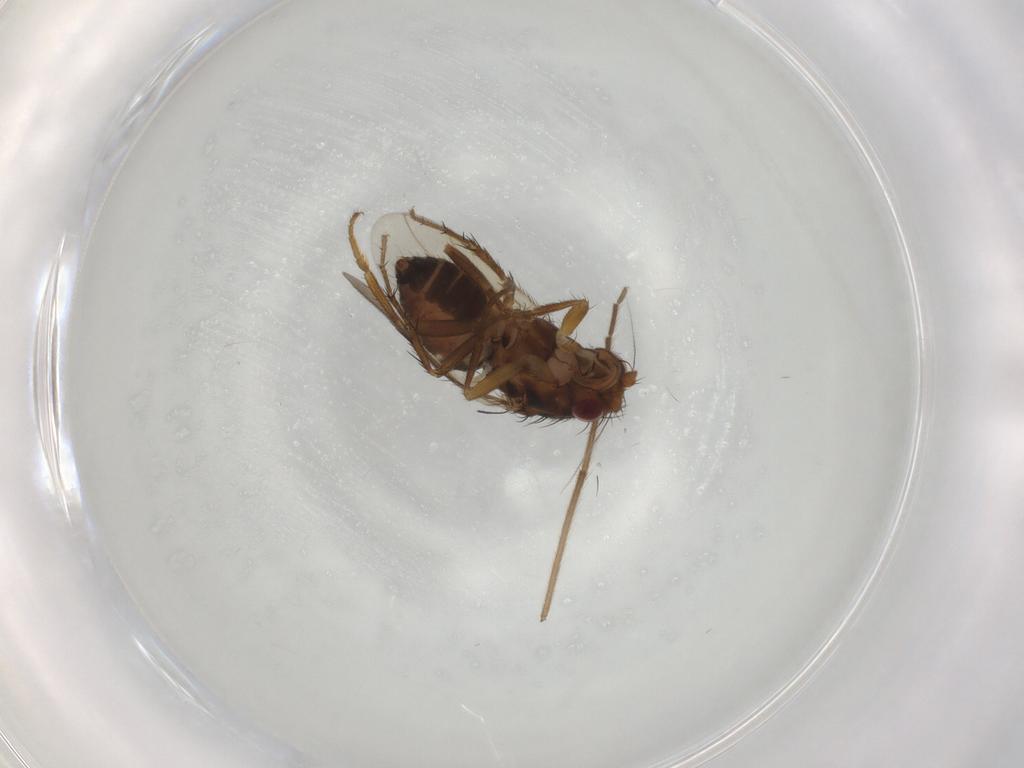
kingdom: Animalia
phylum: Arthropoda
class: Insecta
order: Diptera
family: Sphaeroceridae
